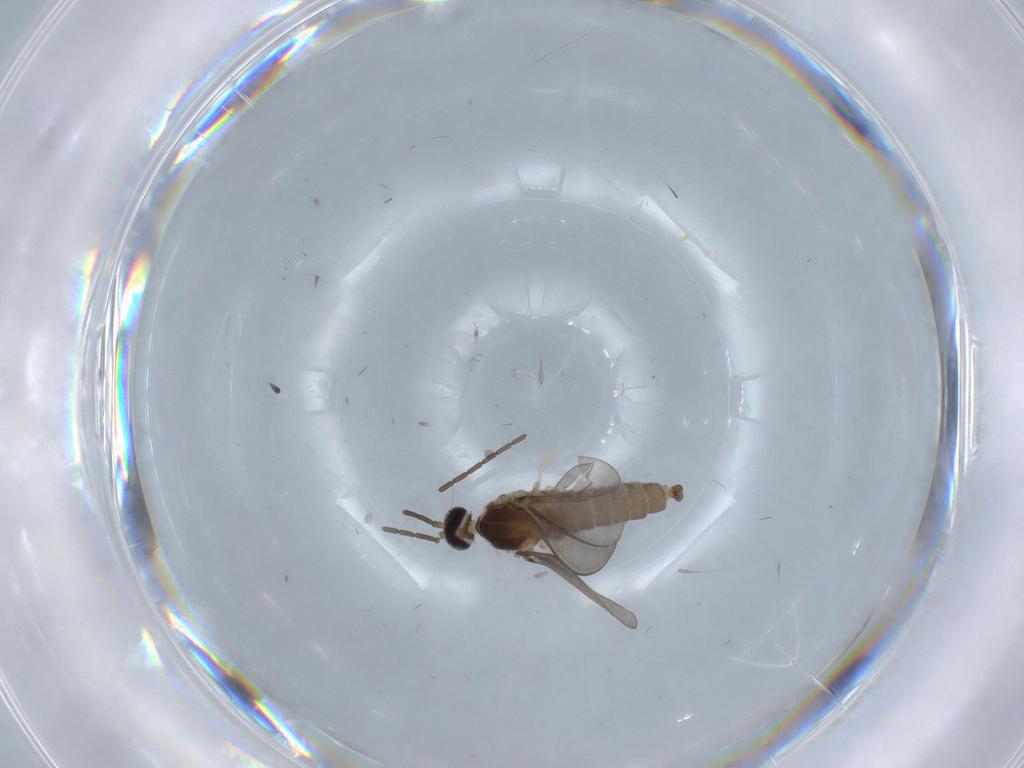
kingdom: Animalia
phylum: Arthropoda
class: Insecta
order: Diptera
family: Cecidomyiidae
